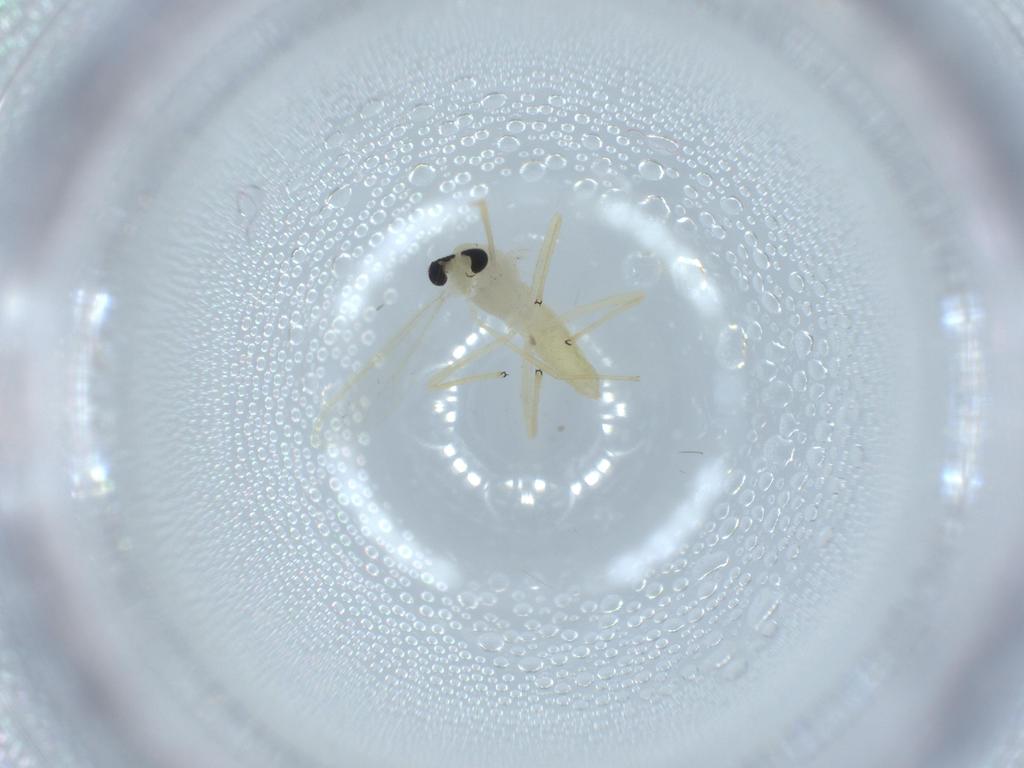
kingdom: Animalia
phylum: Arthropoda
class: Insecta
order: Diptera
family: Chironomidae
